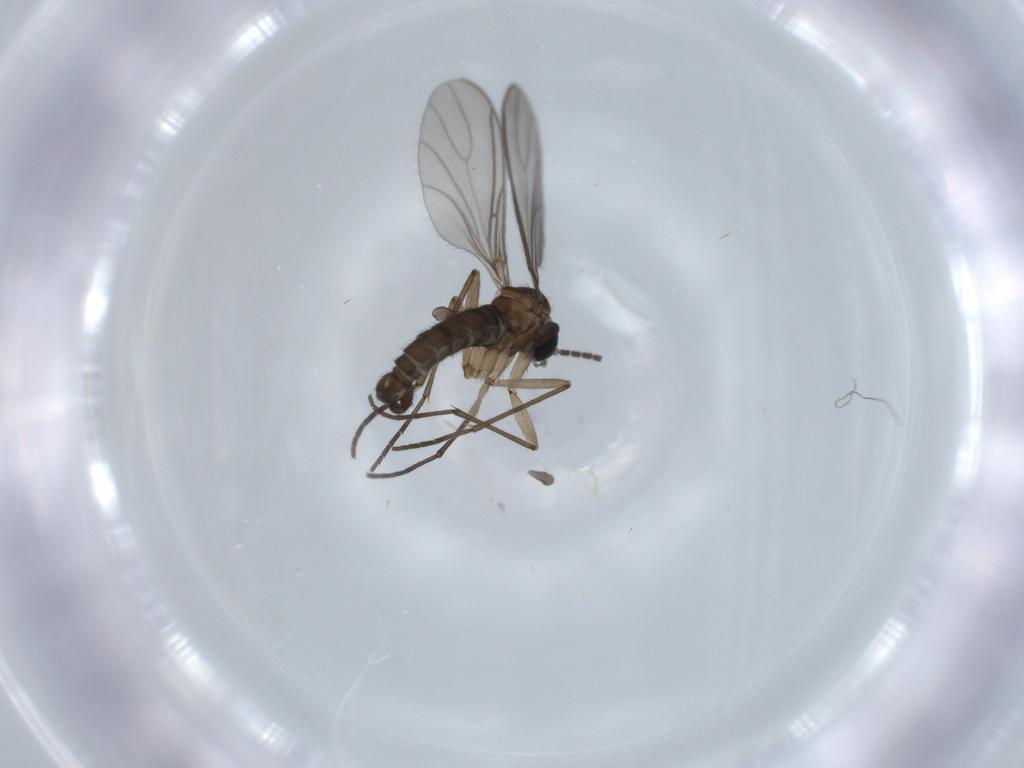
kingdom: Animalia
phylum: Arthropoda
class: Insecta
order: Diptera
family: Sciaridae
